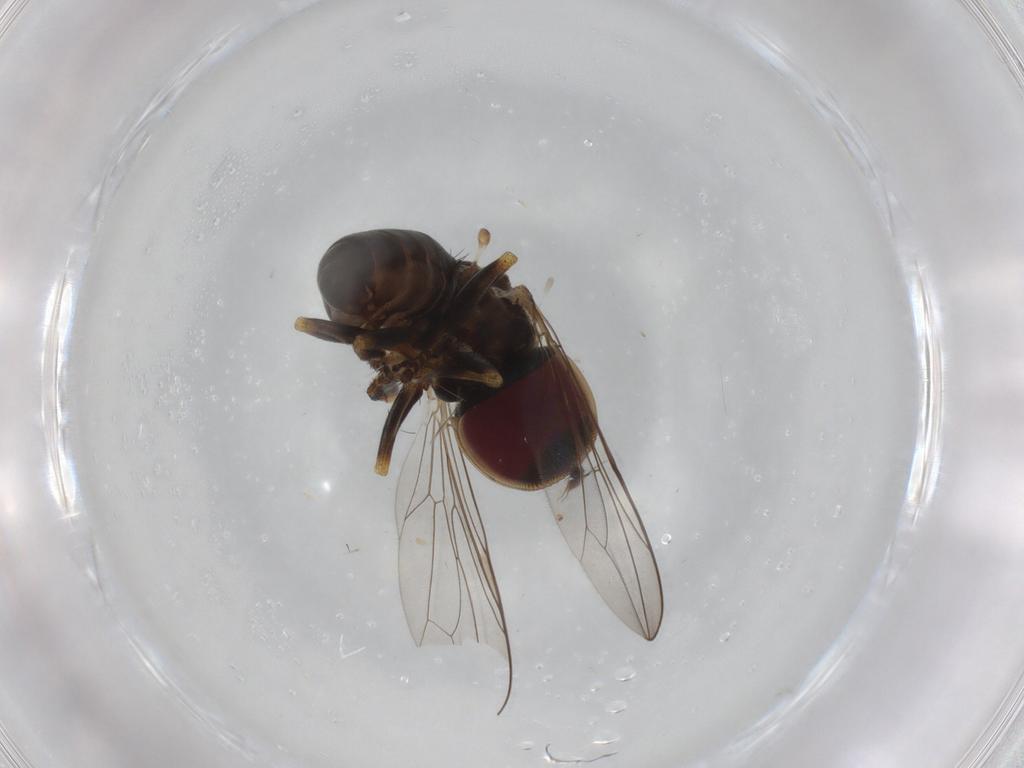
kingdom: Animalia
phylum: Arthropoda
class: Insecta
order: Diptera
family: Pipunculidae
